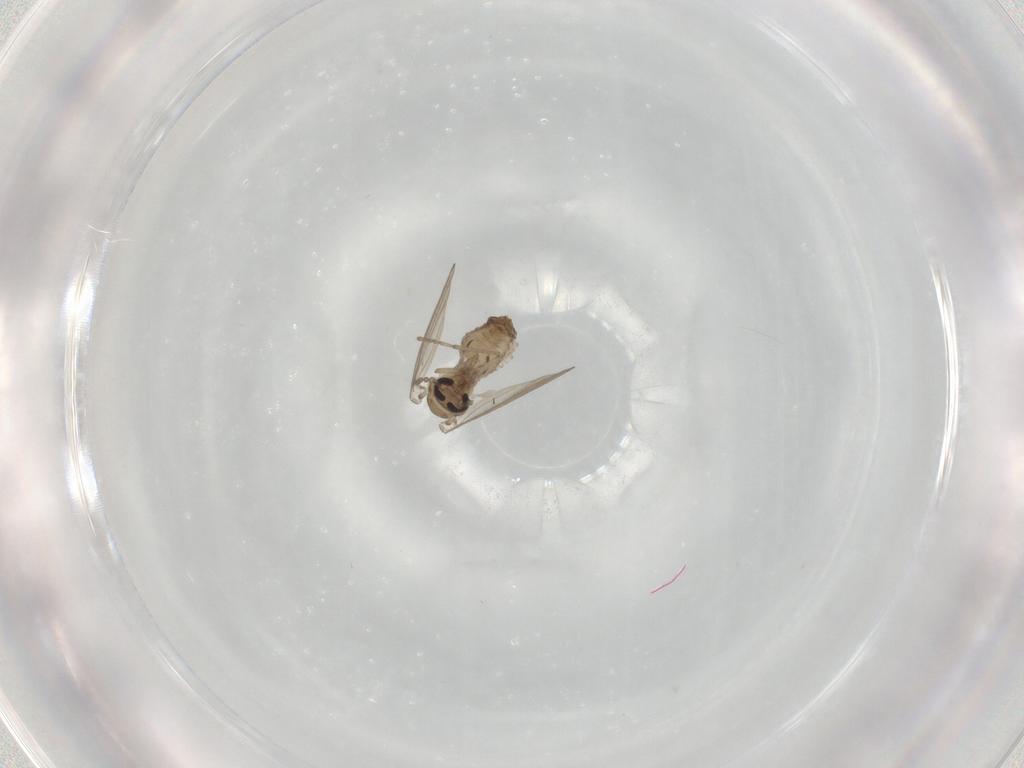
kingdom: Animalia
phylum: Arthropoda
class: Insecta
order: Diptera
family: Psychodidae
